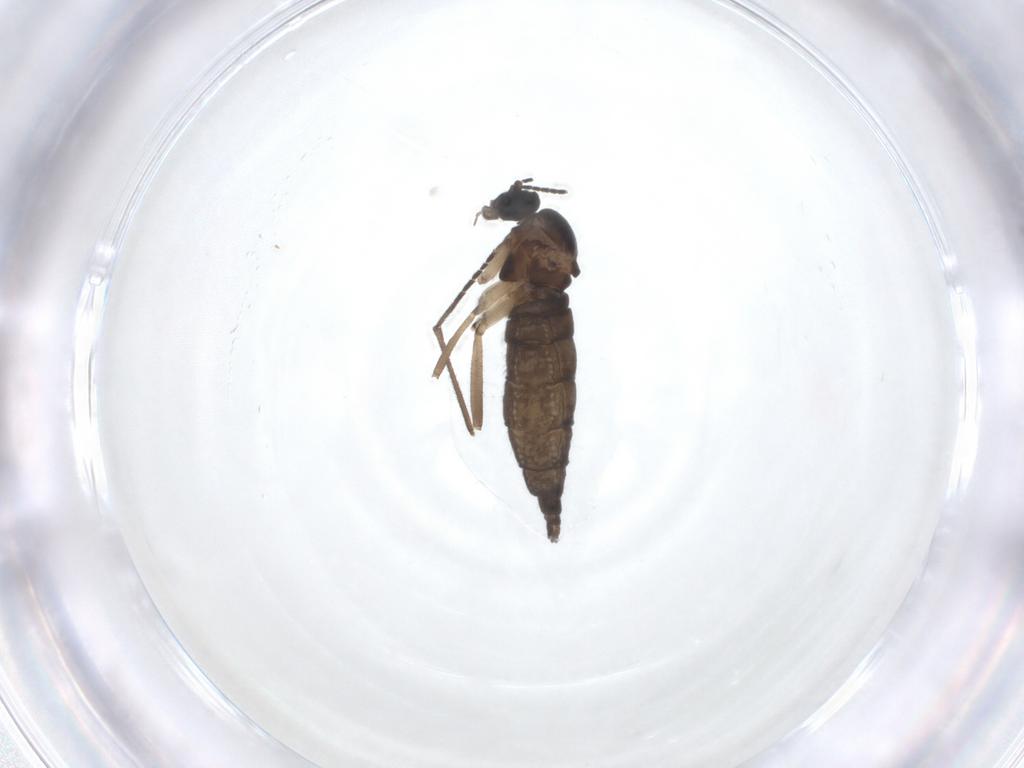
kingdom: Animalia
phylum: Arthropoda
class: Insecta
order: Diptera
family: Sciaridae
